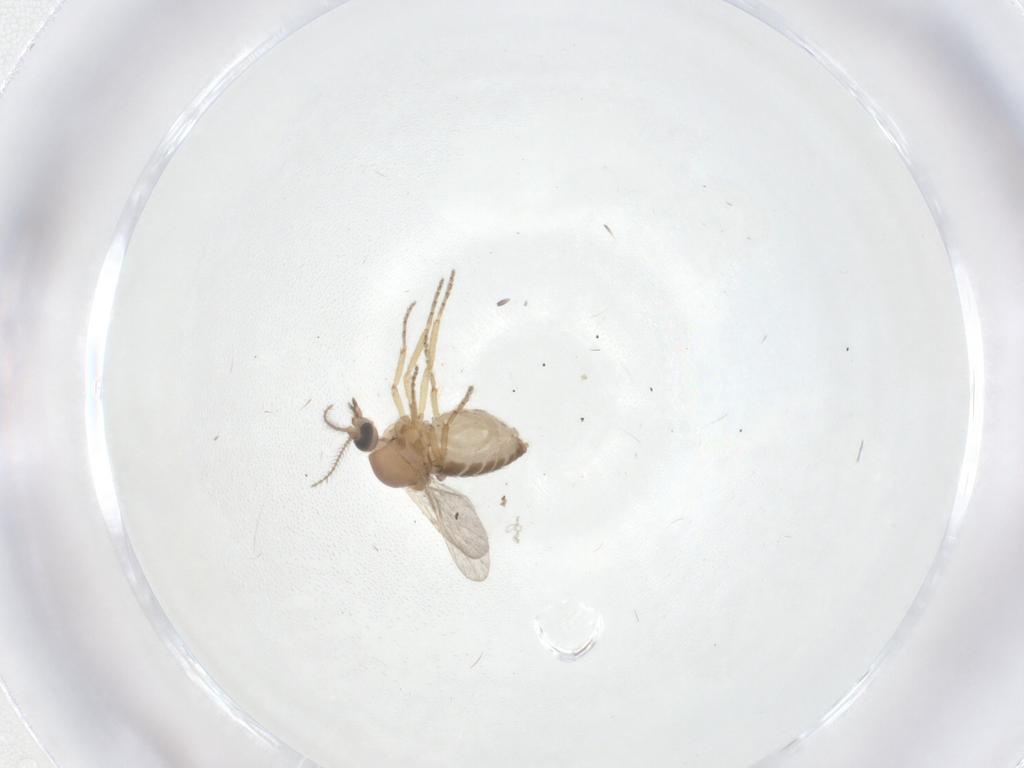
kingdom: Animalia
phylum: Arthropoda
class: Insecta
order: Diptera
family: Ceratopogonidae
